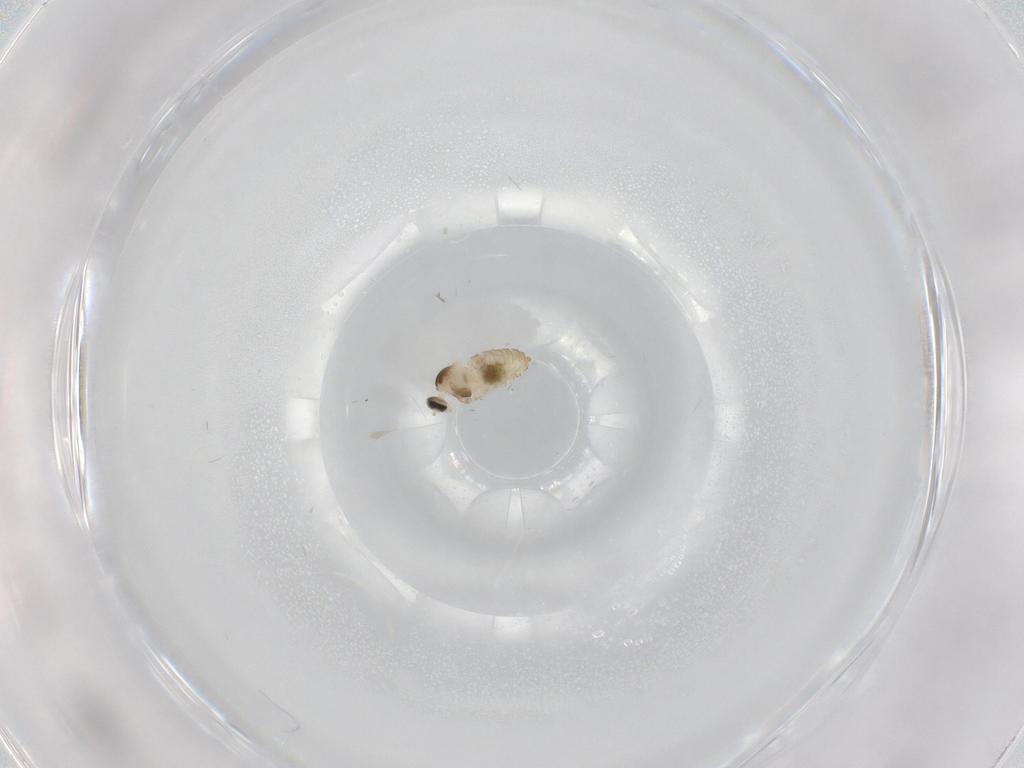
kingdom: Animalia
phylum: Arthropoda
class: Insecta
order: Diptera
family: Cecidomyiidae
